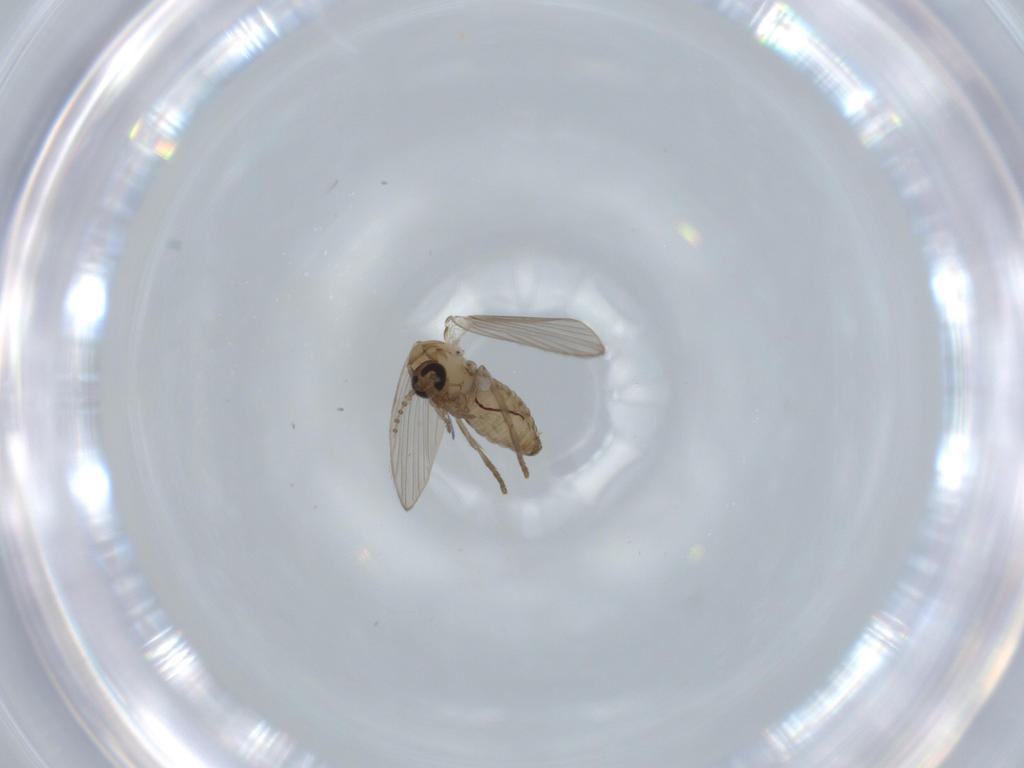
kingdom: Animalia
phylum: Arthropoda
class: Insecta
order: Diptera
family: Psychodidae
